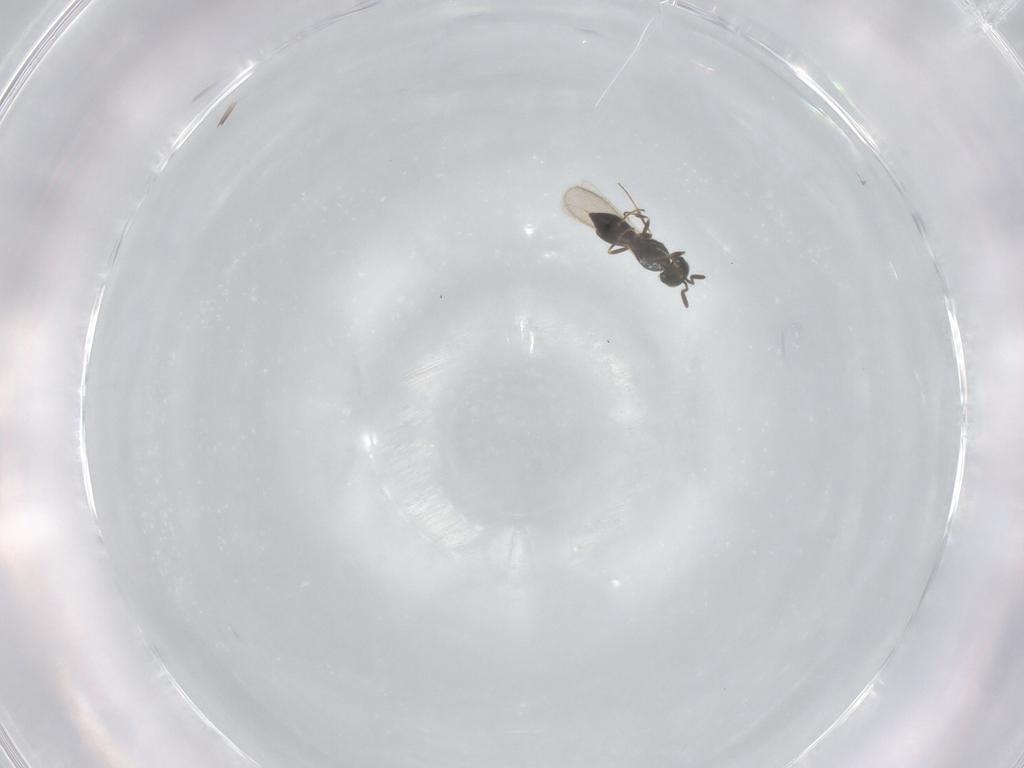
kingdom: Animalia
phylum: Arthropoda
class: Insecta
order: Hymenoptera
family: Scelionidae
